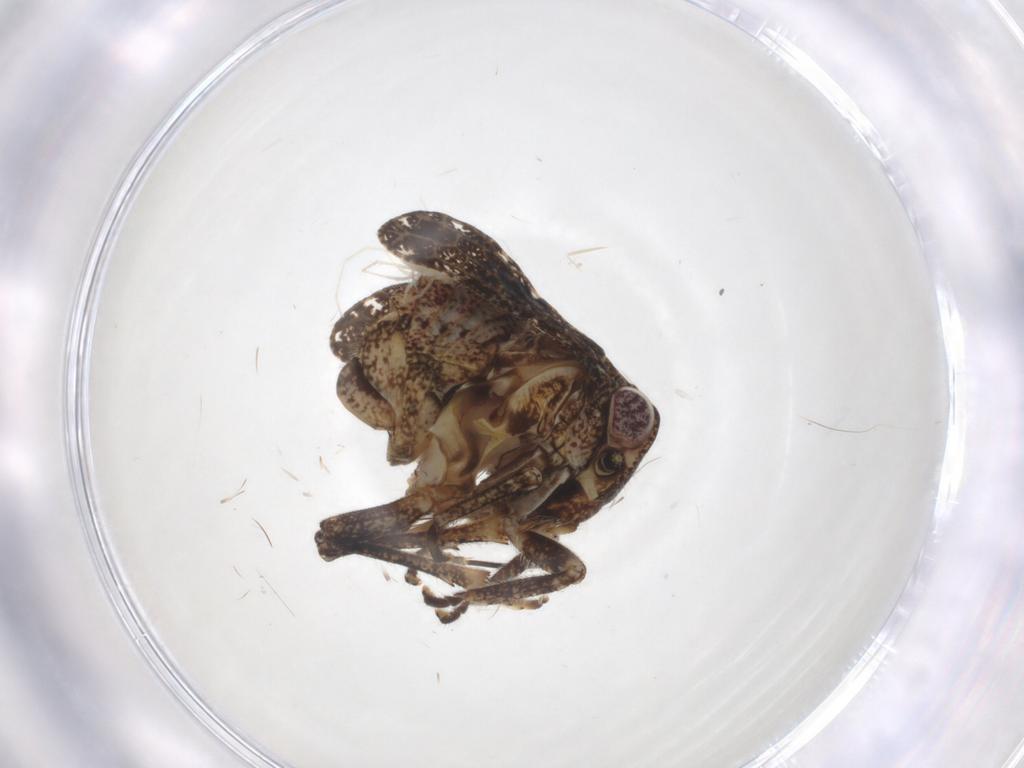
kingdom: Animalia
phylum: Arthropoda
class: Insecta
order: Hemiptera
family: Tropiduchidae
